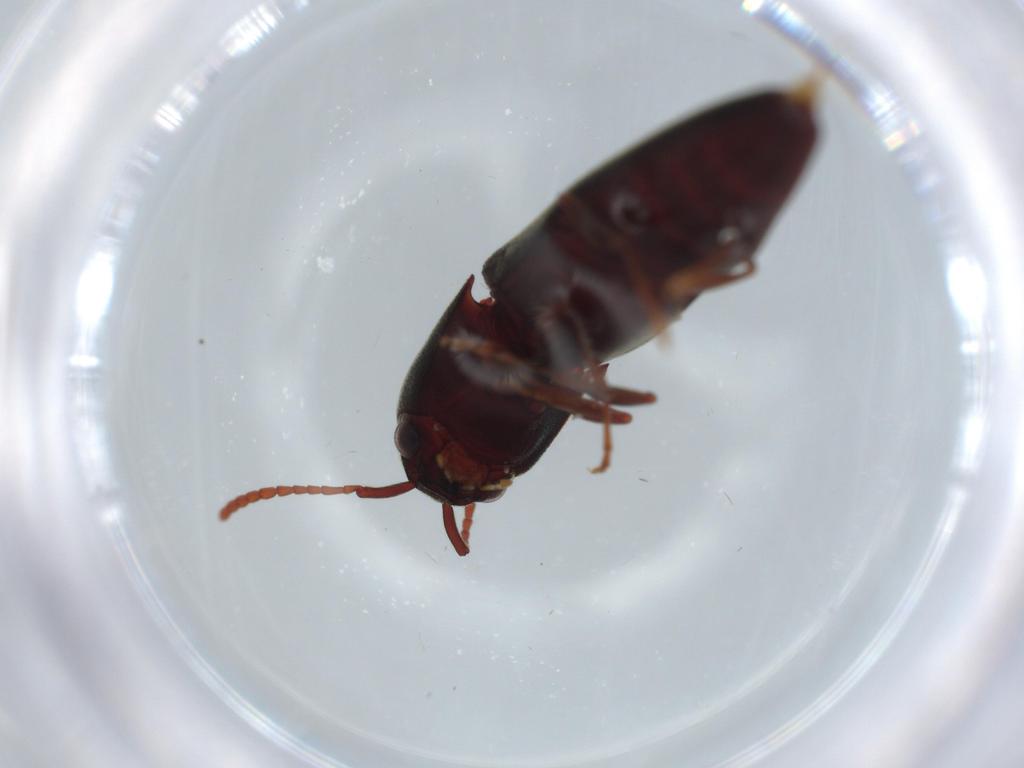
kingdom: Animalia
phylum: Arthropoda
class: Insecta
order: Coleoptera
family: Eucnemidae
